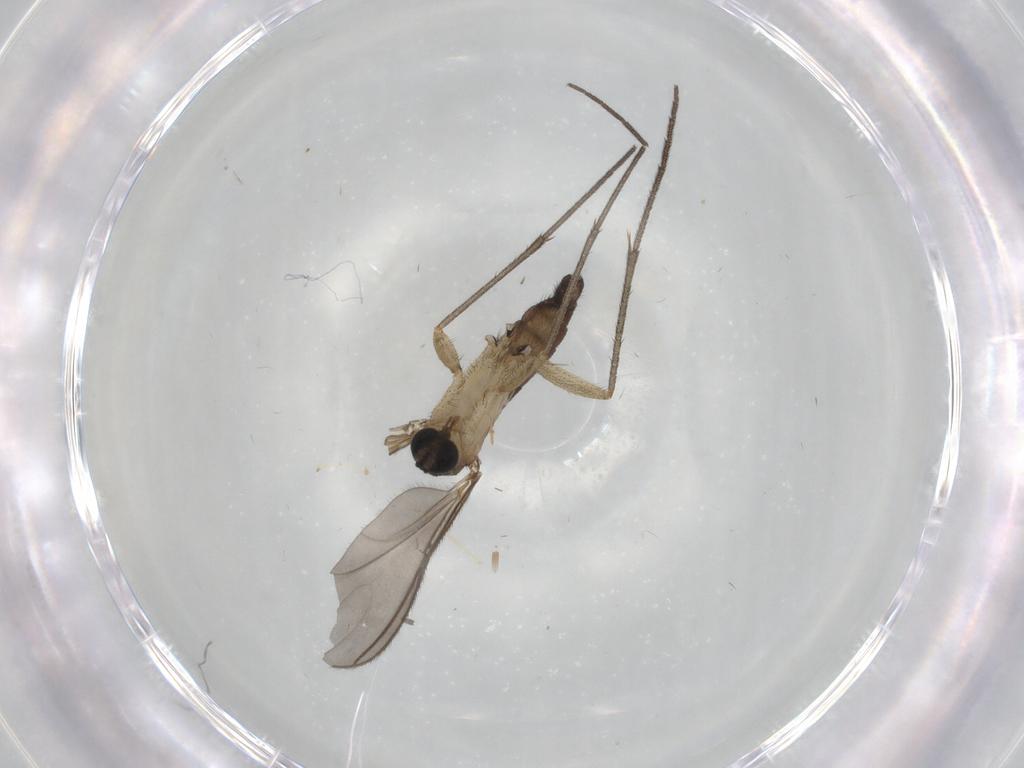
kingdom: Animalia
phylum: Arthropoda
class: Insecta
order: Diptera
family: Sciaridae
